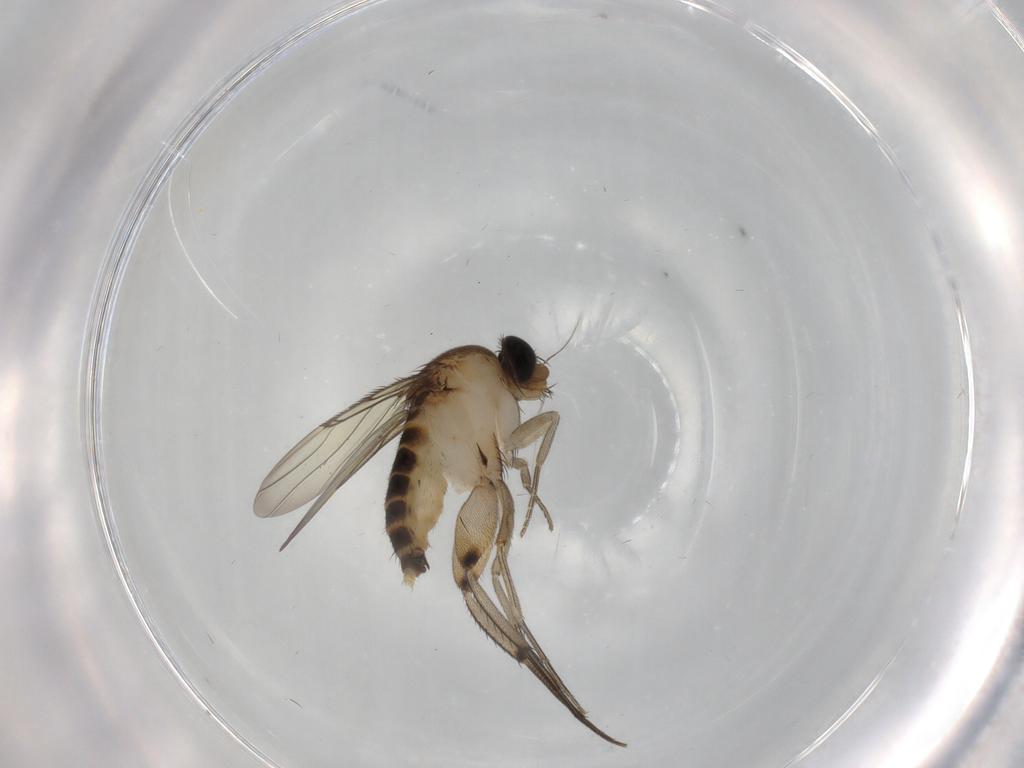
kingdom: Animalia
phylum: Arthropoda
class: Insecta
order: Diptera
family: Phoridae
